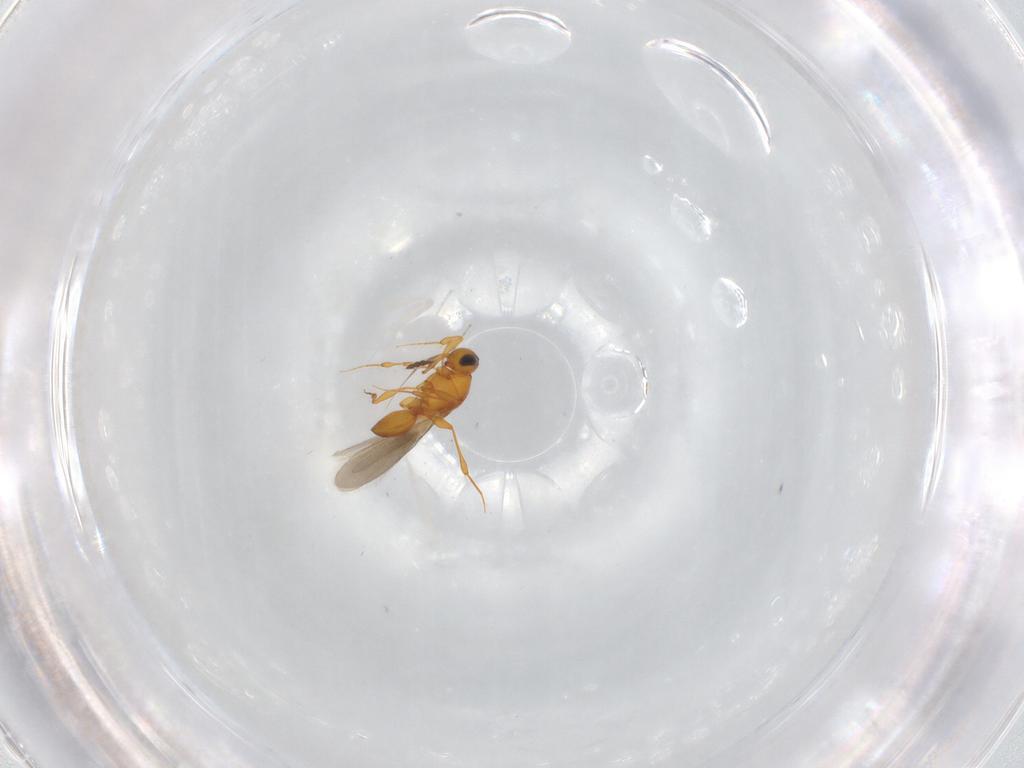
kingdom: Animalia
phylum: Arthropoda
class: Insecta
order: Hymenoptera
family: Platygastridae
